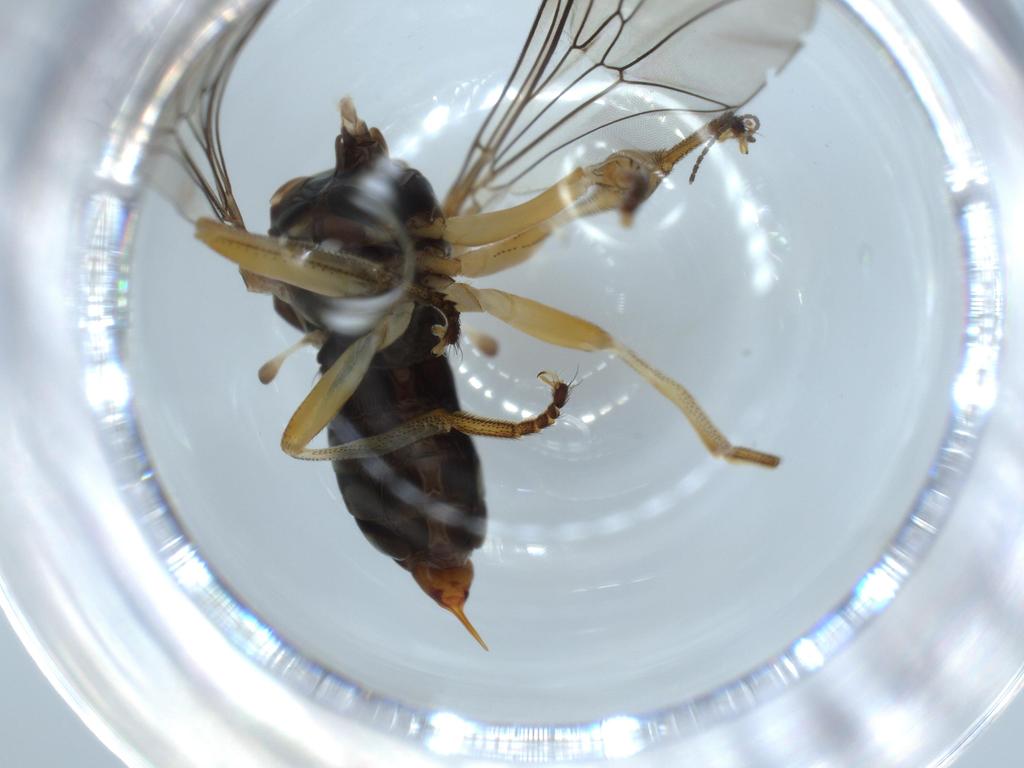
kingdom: Animalia
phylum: Arthropoda
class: Insecta
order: Diptera
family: Pipunculidae
